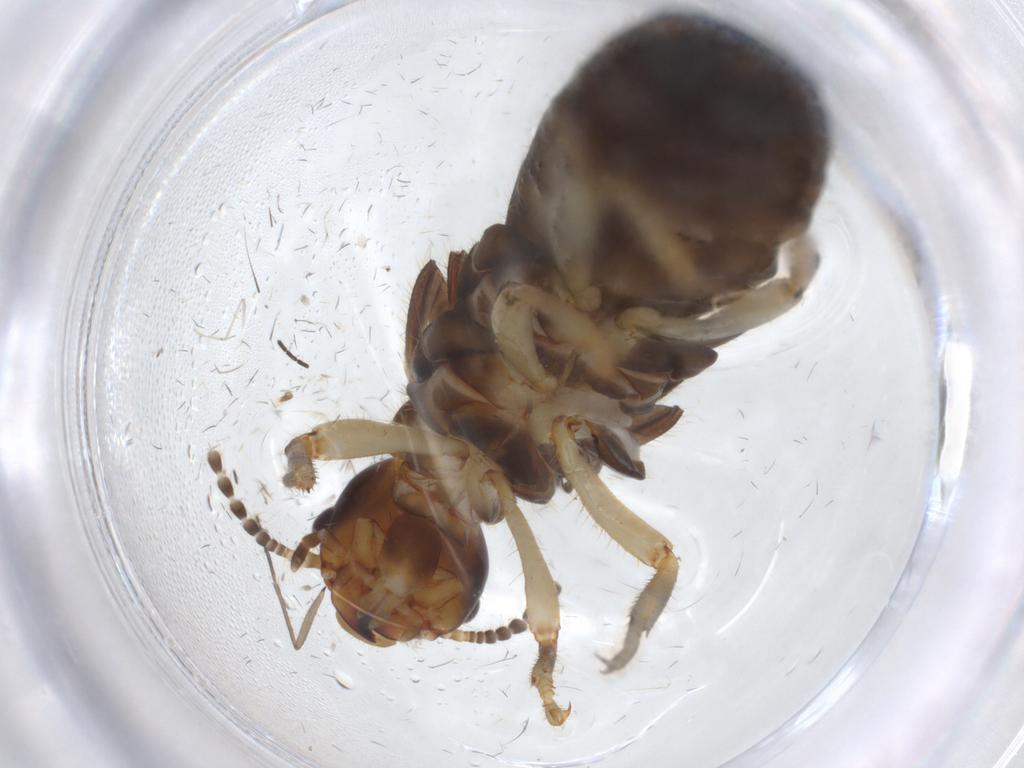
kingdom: Animalia
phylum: Arthropoda
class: Insecta
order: Blattodea
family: Stolotermitidae
